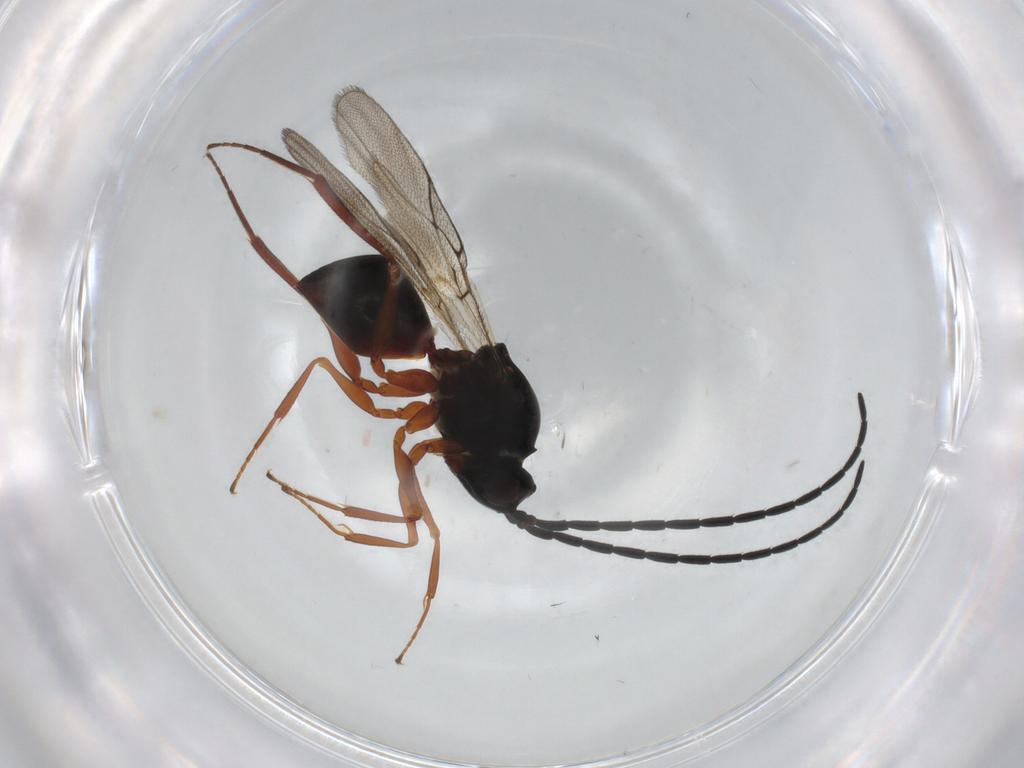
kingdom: Animalia
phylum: Arthropoda
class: Insecta
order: Hymenoptera
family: Figitidae
